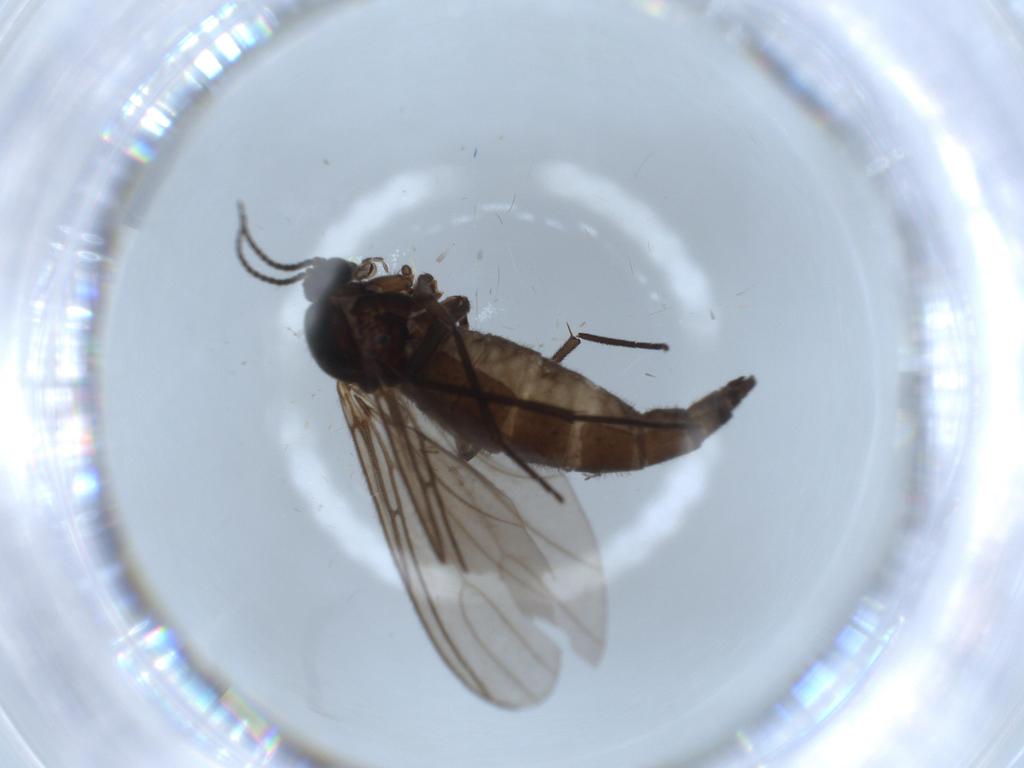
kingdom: Animalia
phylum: Arthropoda
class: Insecta
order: Diptera
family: Sciaridae
